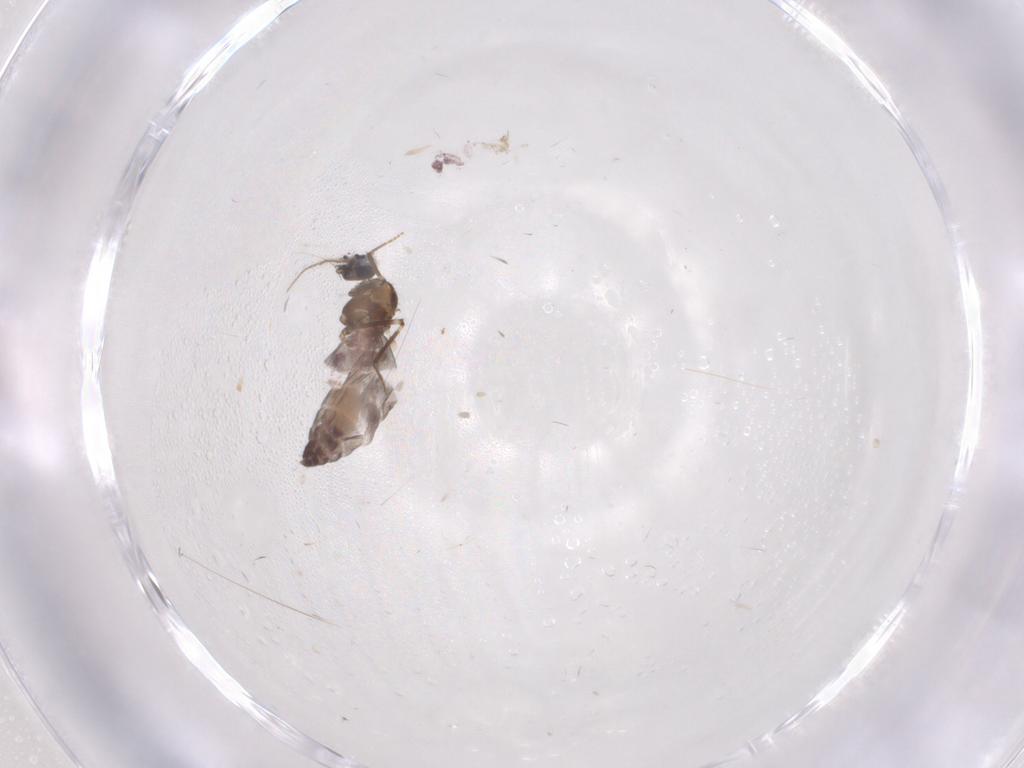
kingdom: Animalia
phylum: Arthropoda
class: Insecta
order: Diptera
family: Ceratopogonidae
